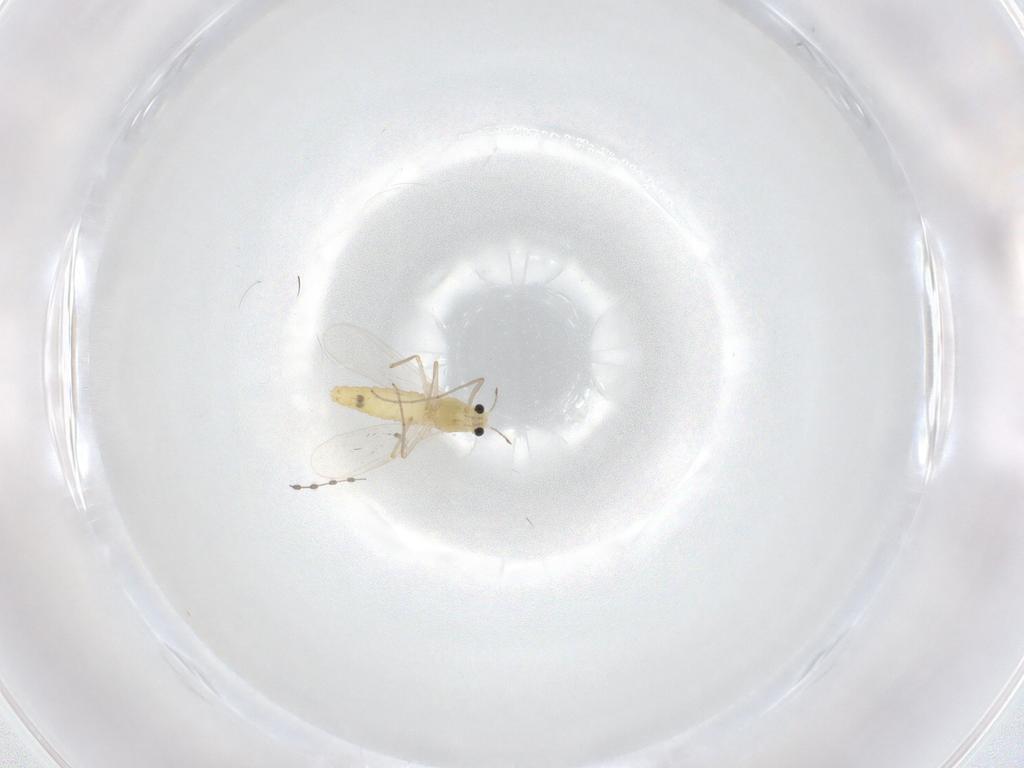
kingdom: Animalia
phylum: Arthropoda
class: Insecta
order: Diptera
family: Chironomidae
